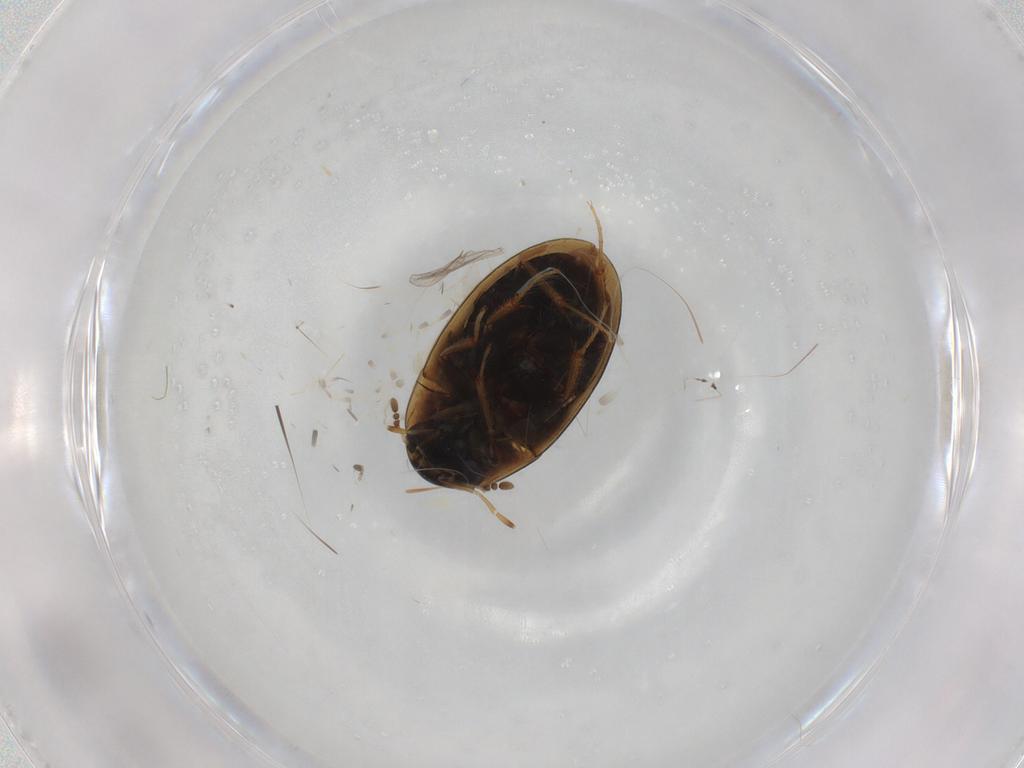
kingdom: Animalia
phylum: Arthropoda
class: Insecta
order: Coleoptera
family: Hydrophilidae
